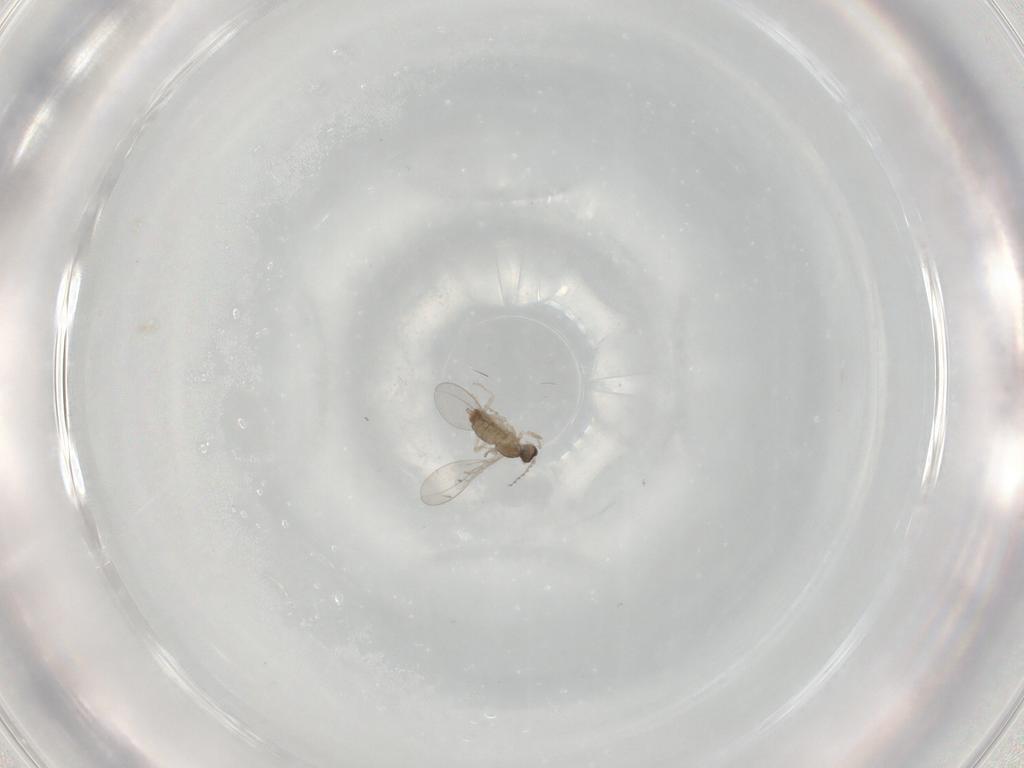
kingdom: Animalia
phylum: Arthropoda
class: Insecta
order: Diptera
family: Cecidomyiidae
